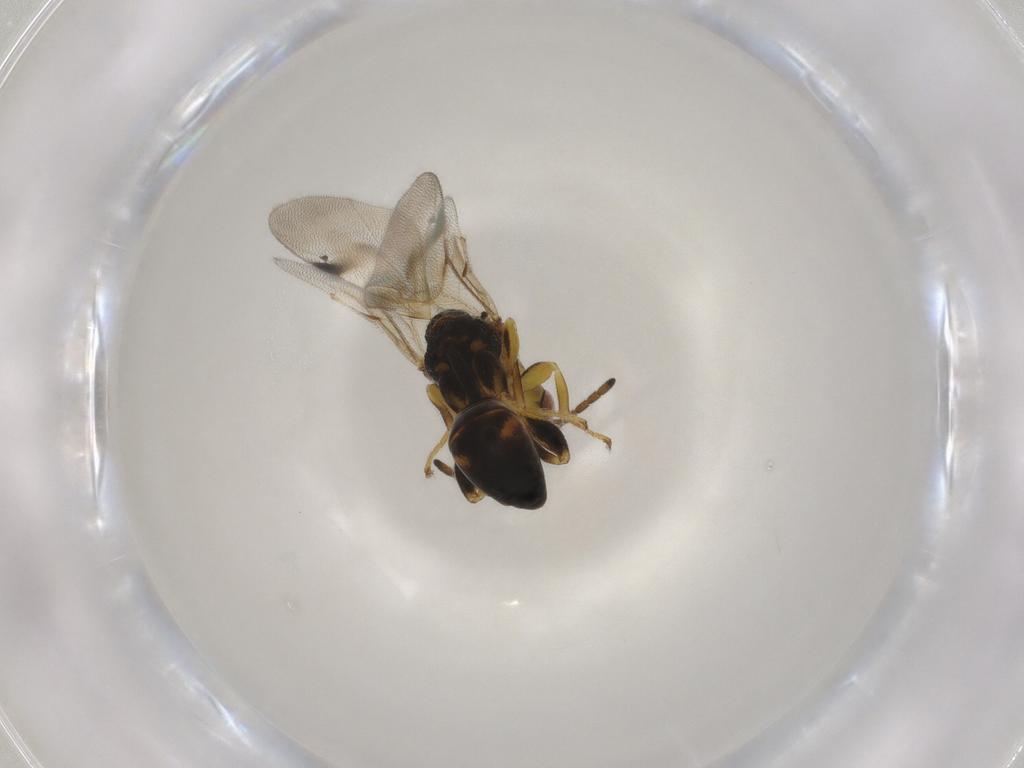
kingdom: Animalia
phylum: Arthropoda
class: Insecta
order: Hymenoptera
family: Eurytomidae
